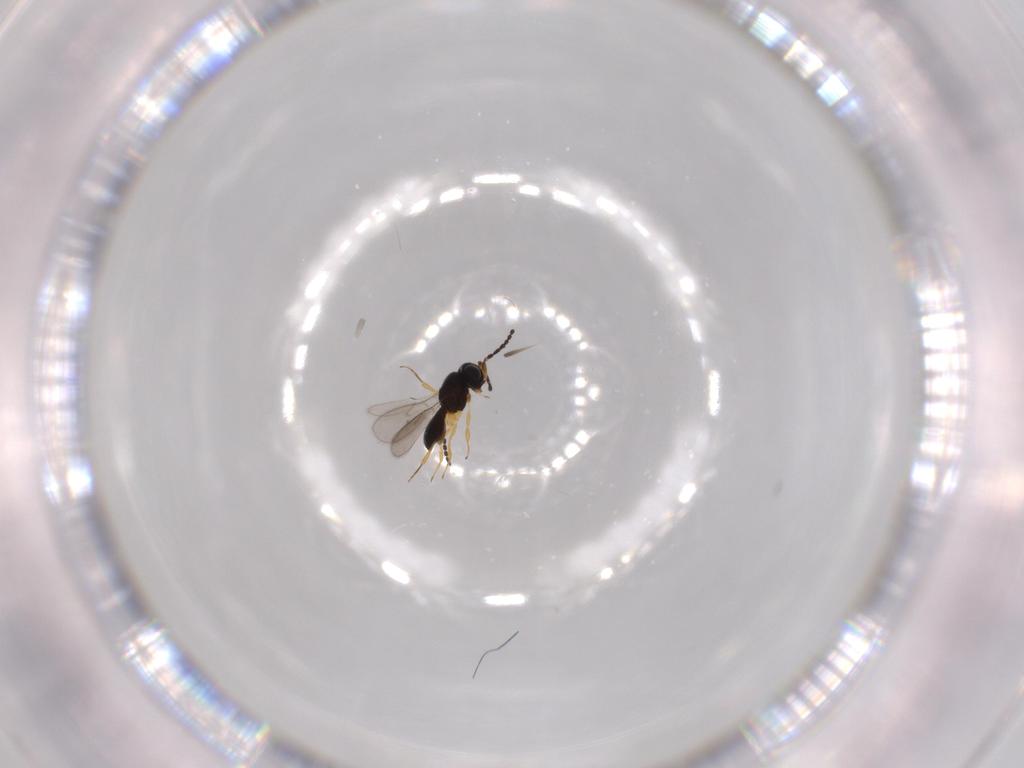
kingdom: Animalia
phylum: Arthropoda
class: Insecta
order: Hymenoptera
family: Scelionidae
